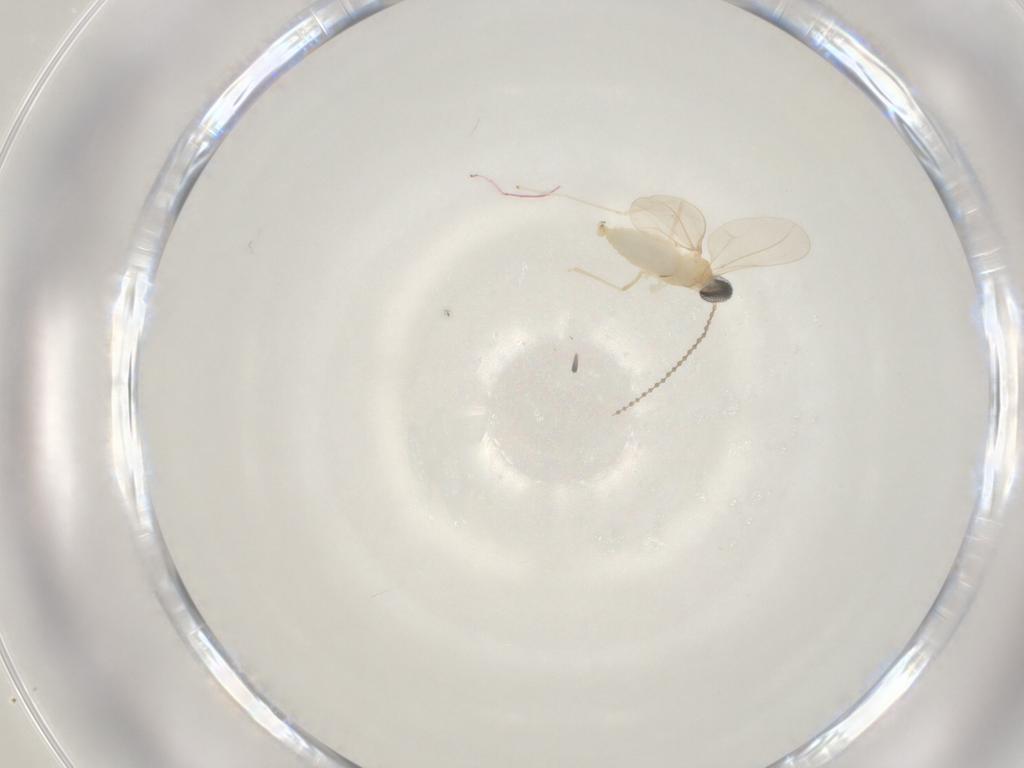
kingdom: Animalia
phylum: Arthropoda
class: Insecta
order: Diptera
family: Cecidomyiidae
